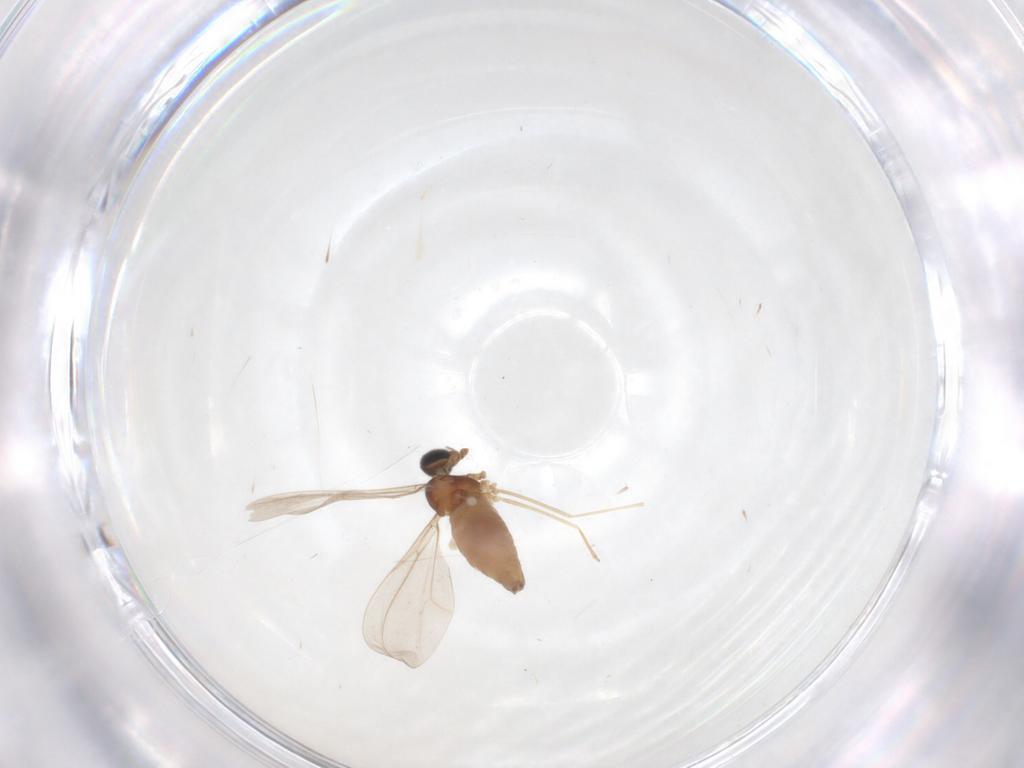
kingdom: Animalia
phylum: Arthropoda
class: Insecta
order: Diptera
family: Cecidomyiidae
